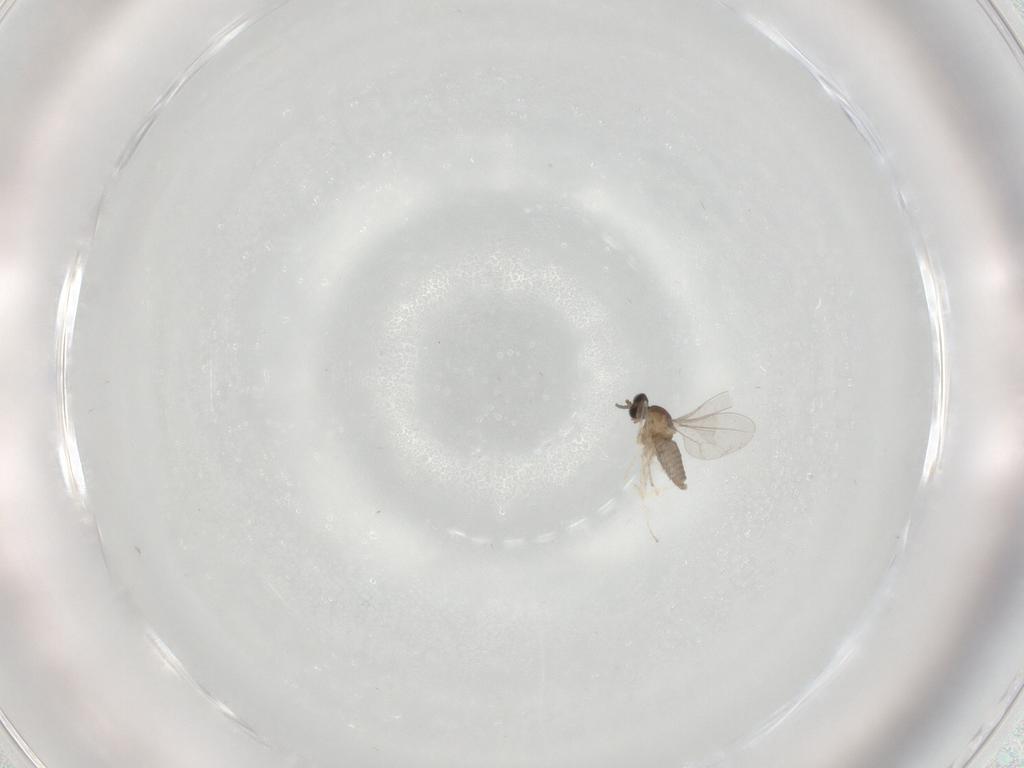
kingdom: Animalia
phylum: Arthropoda
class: Insecta
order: Diptera
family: Cecidomyiidae
